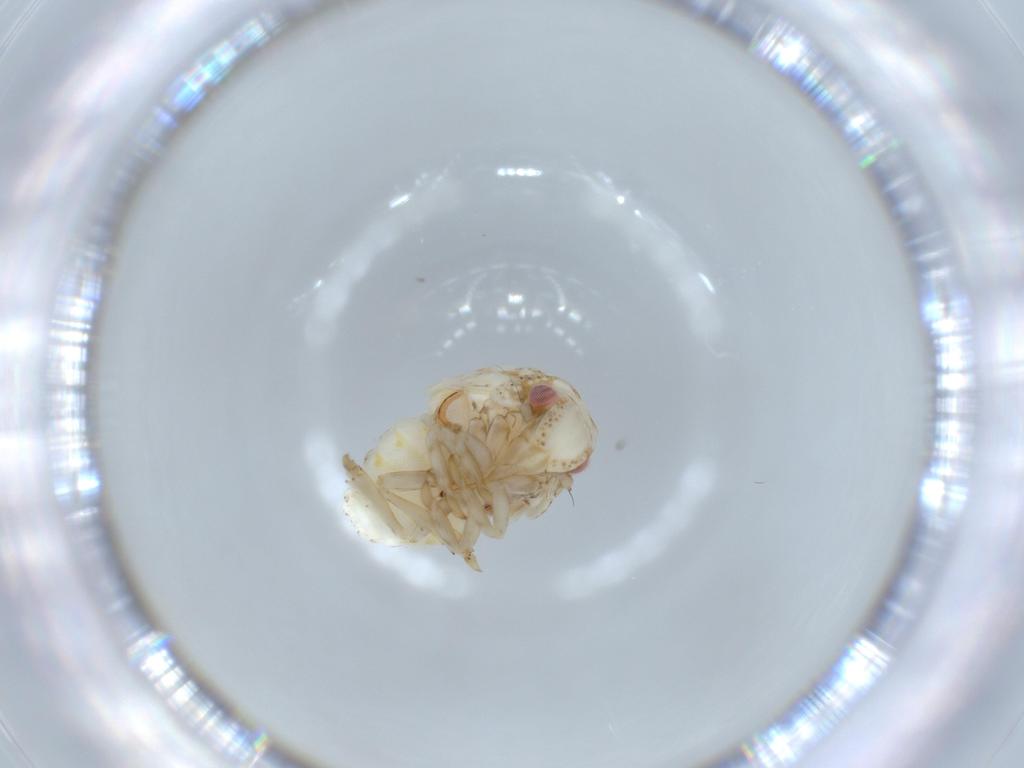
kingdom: Animalia
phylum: Arthropoda
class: Insecta
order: Hemiptera
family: Acanaloniidae
